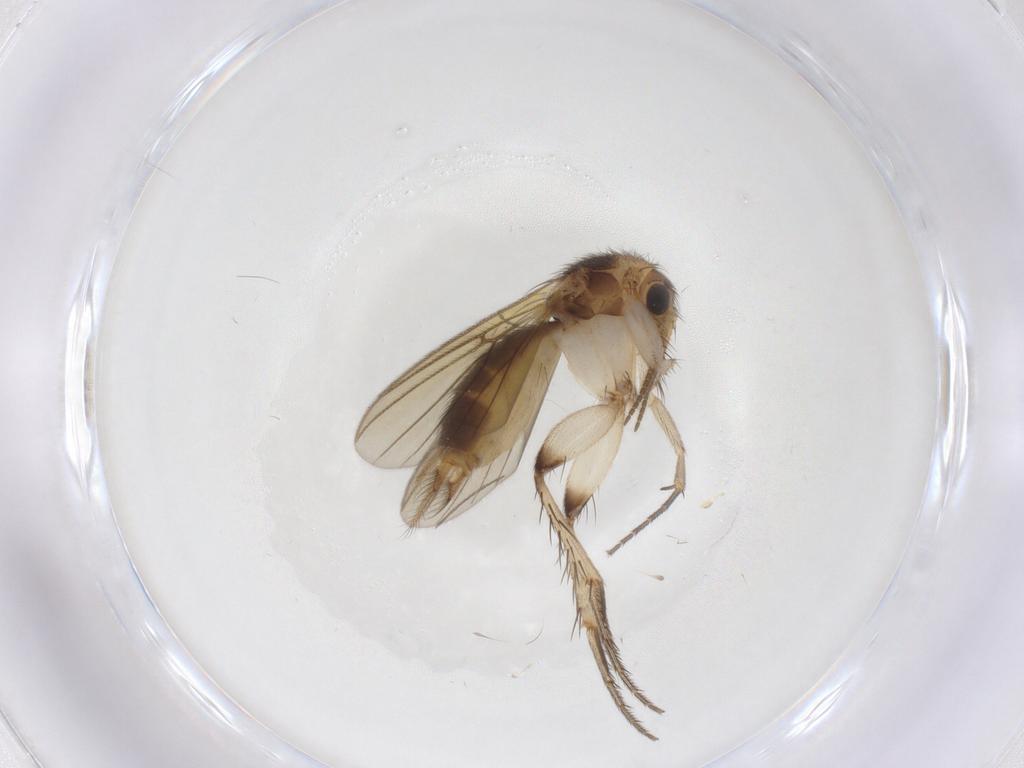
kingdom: Animalia
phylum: Arthropoda
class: Insecta
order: Diptera
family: Mycetophilidae
